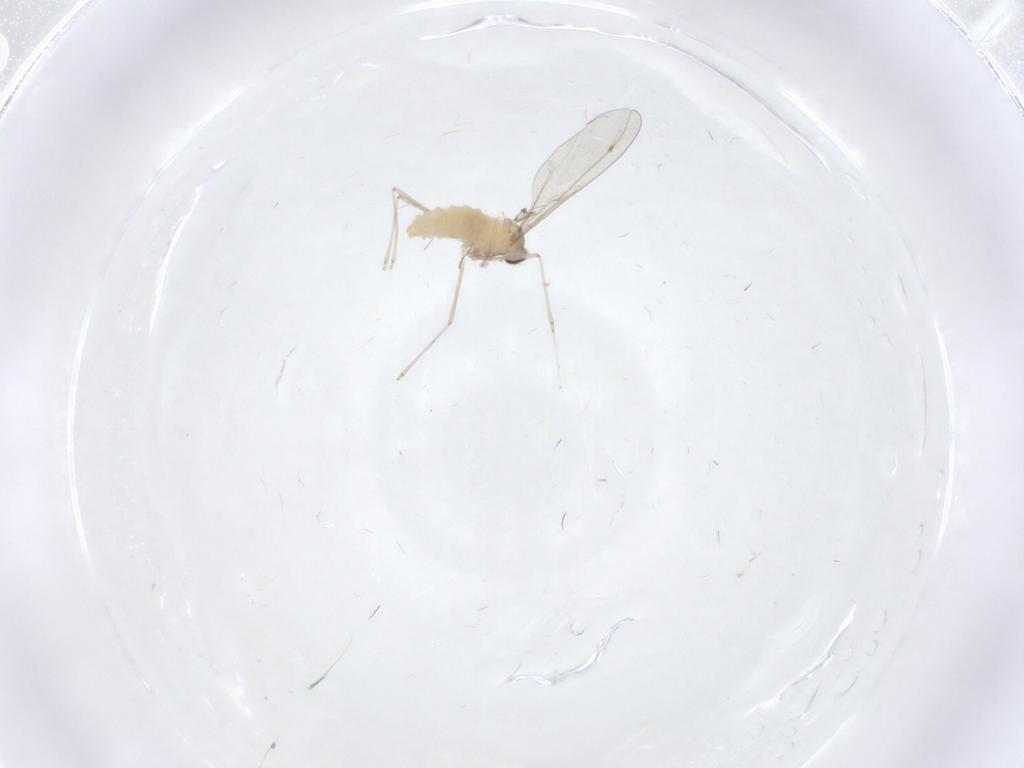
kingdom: Animalia
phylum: Arthropoda
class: Insecta
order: Diptera
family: Cecidomyiidae
